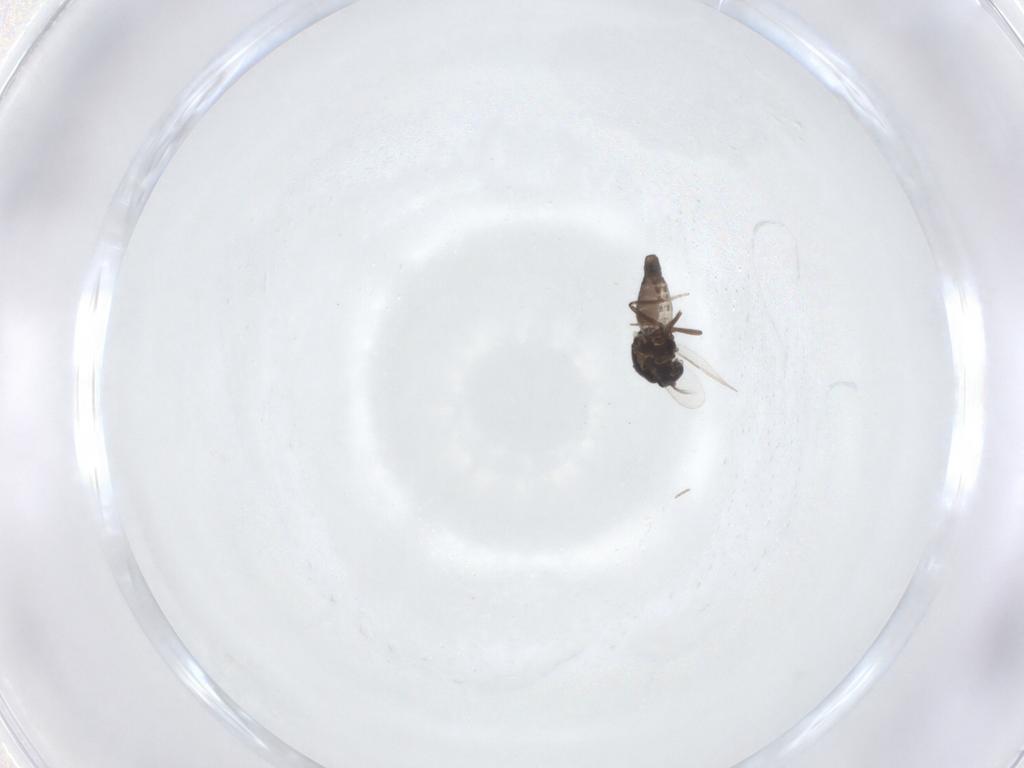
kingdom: Animalia
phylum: Arthropoda
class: Insecta
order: Diptera
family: Ceratopogonidae
